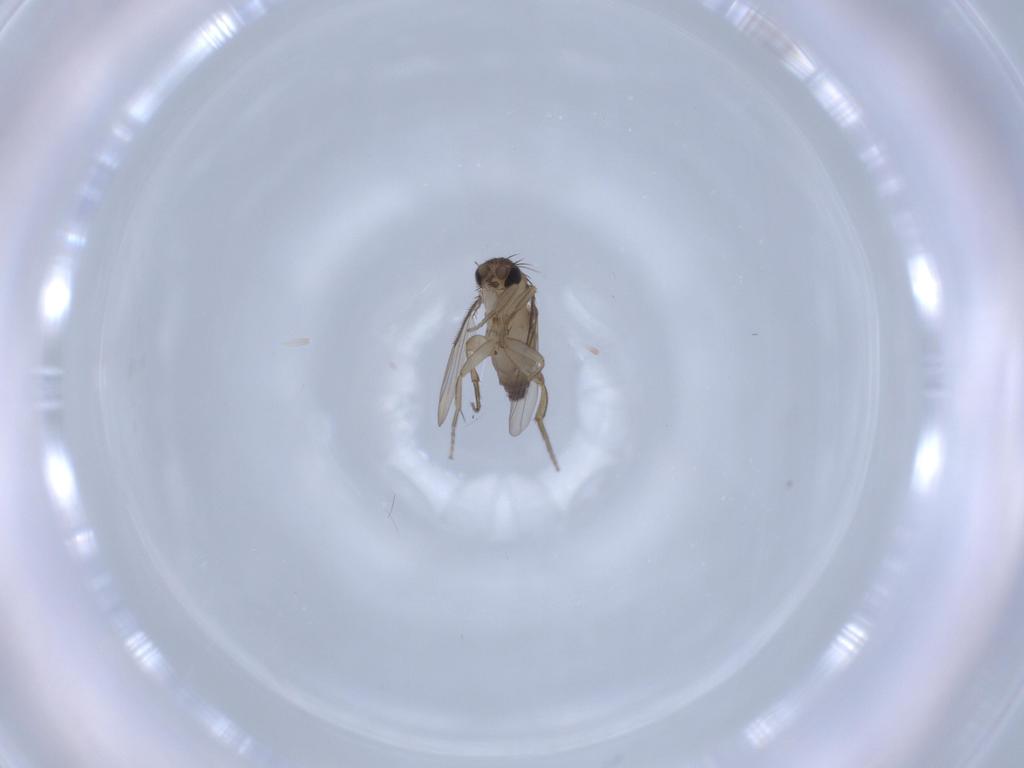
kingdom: Animalia
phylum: Arthropoda
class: Insecta
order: Diptera
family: Phoridae
